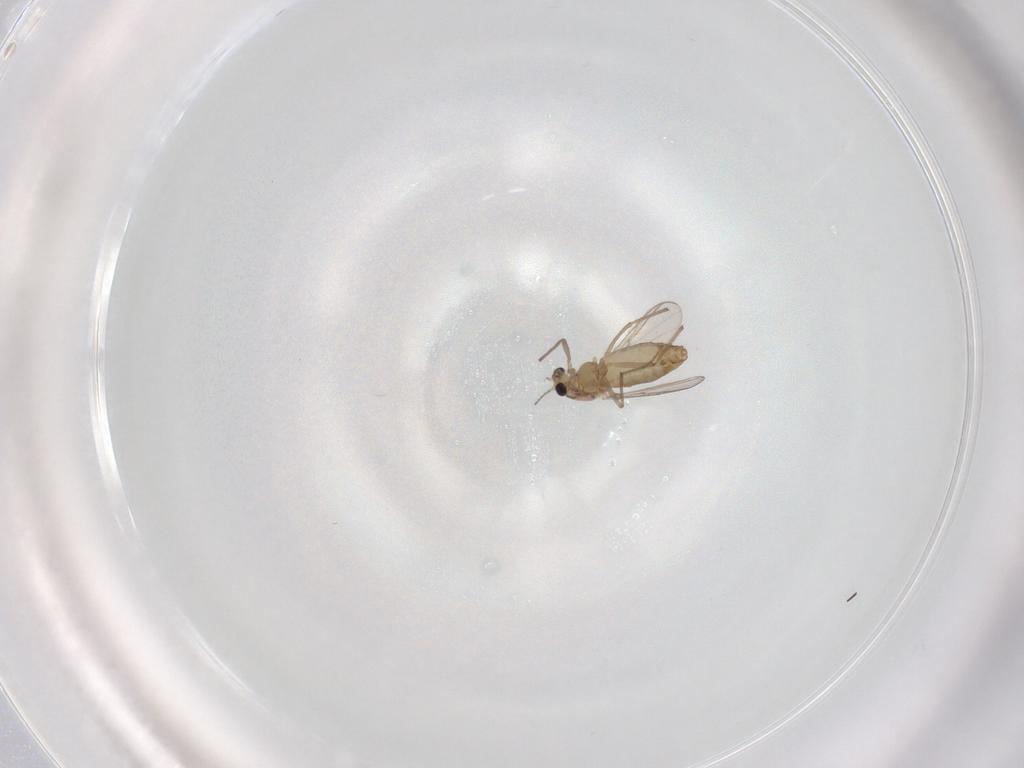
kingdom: Animalia
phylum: Arthropoda
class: Insecta
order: Diptera
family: Chironomidae
